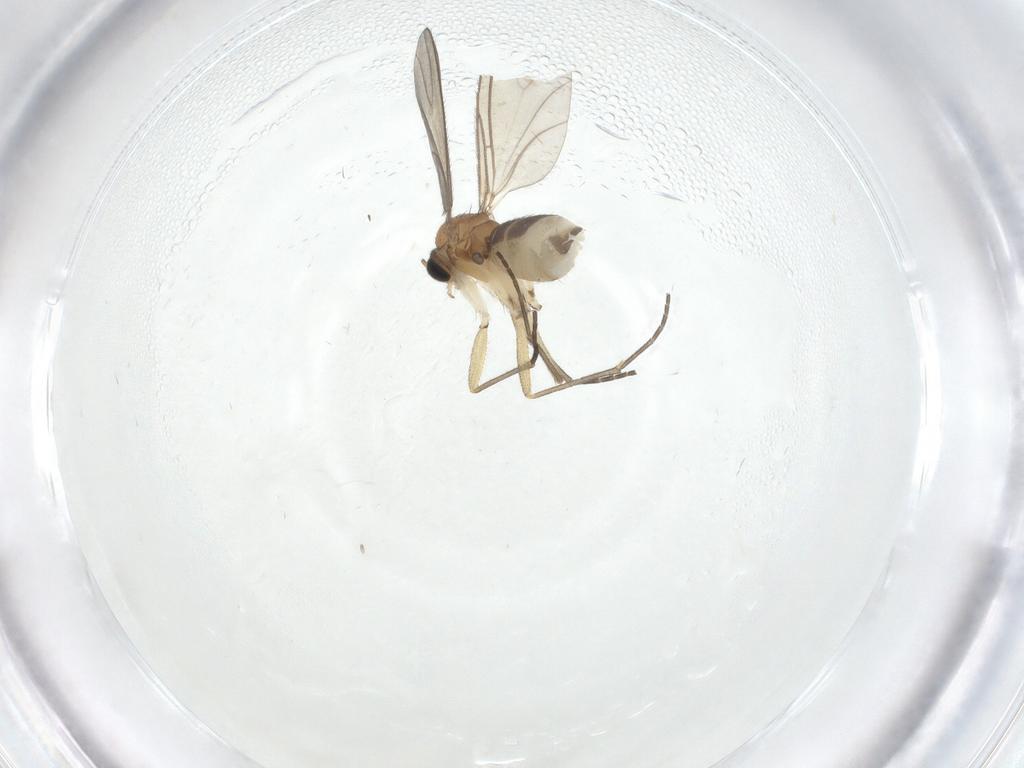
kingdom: Animalia
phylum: Arthropoda
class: Insecta
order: Diptera
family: Sciaridae
